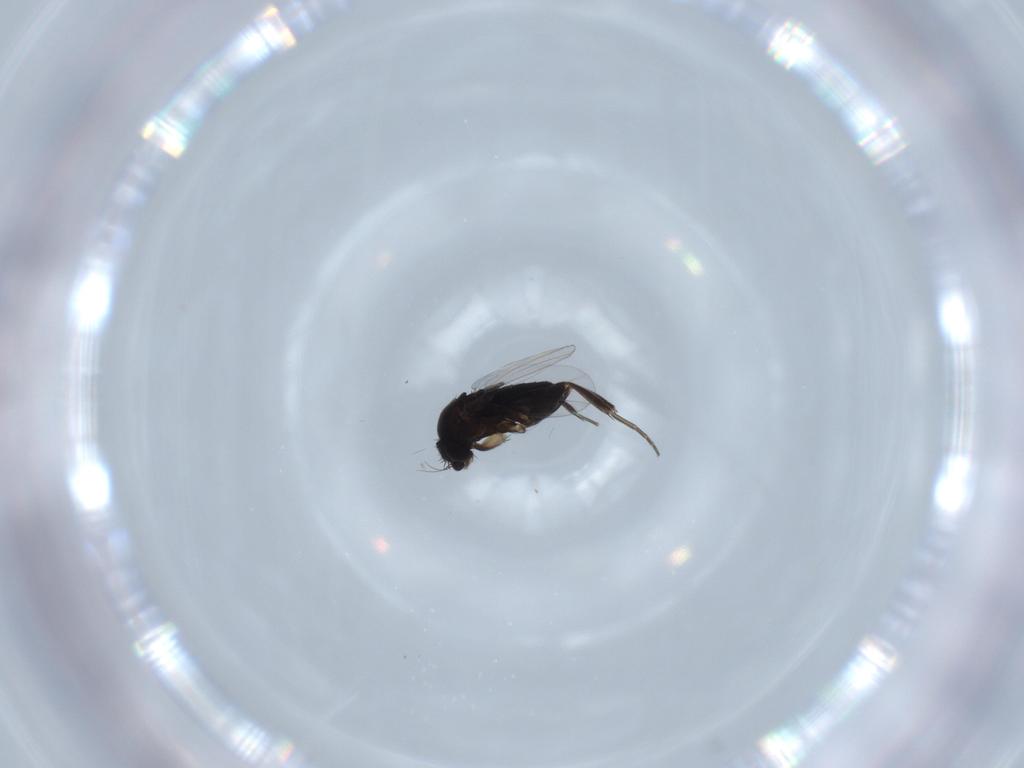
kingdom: Animalia
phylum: Arthropoda
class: Insecta
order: Diptera
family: Phoridae
